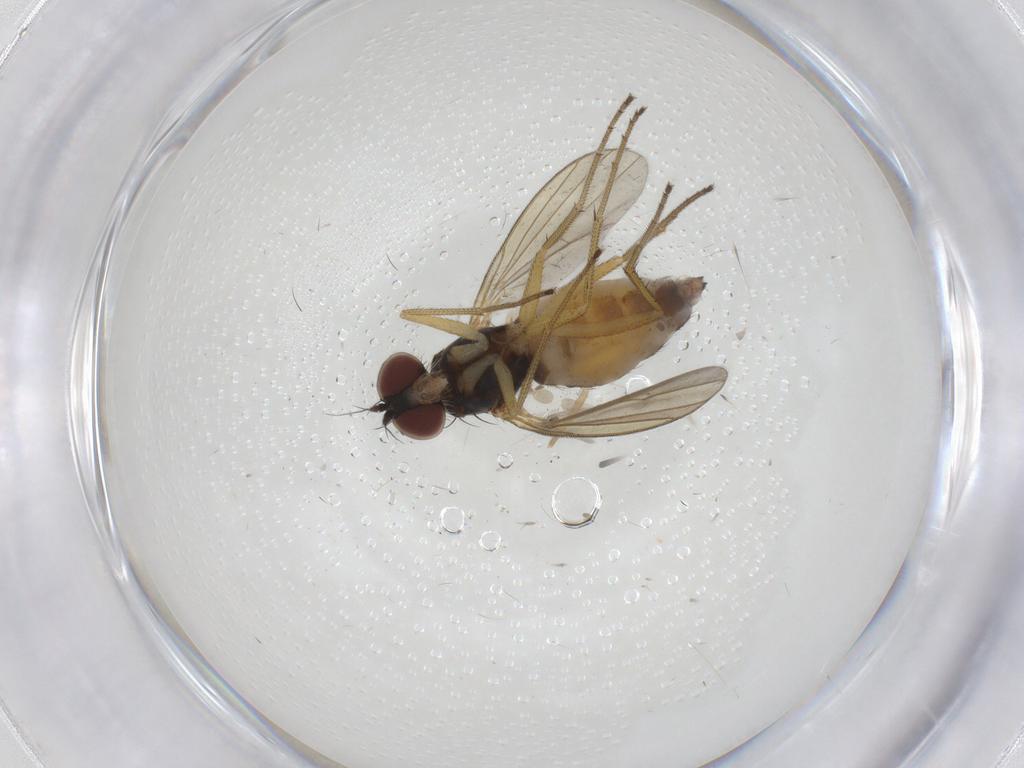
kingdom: Animalia
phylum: Arthropoda
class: Insecta
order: Diptera
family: Dolichopodidae
